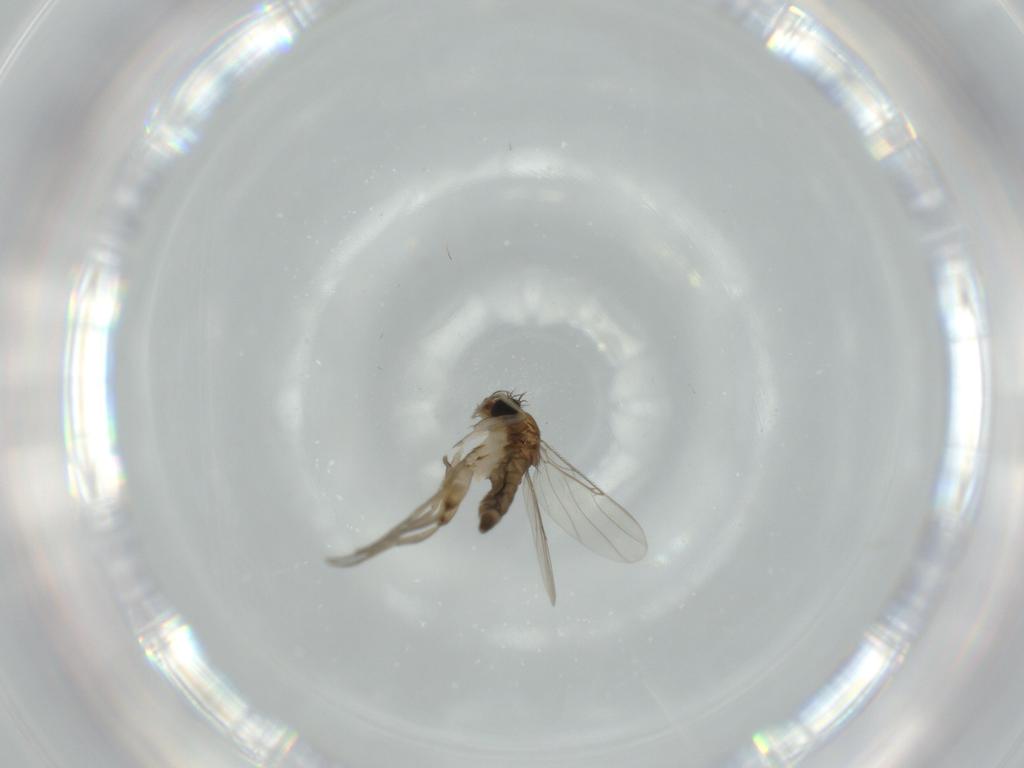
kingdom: Animalia
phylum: Arthropoda
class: Insecta
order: Diptera
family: Phoridae
